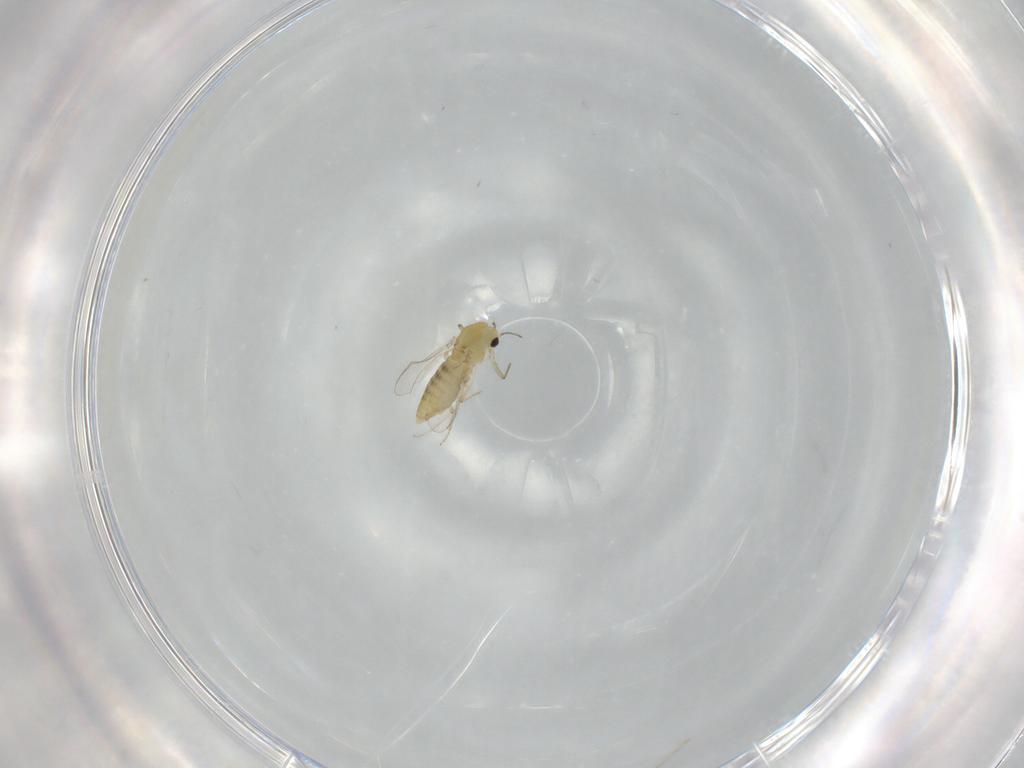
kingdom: Animalia
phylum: Arthropoda
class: Insecta
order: Diptera
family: Chironomidae
